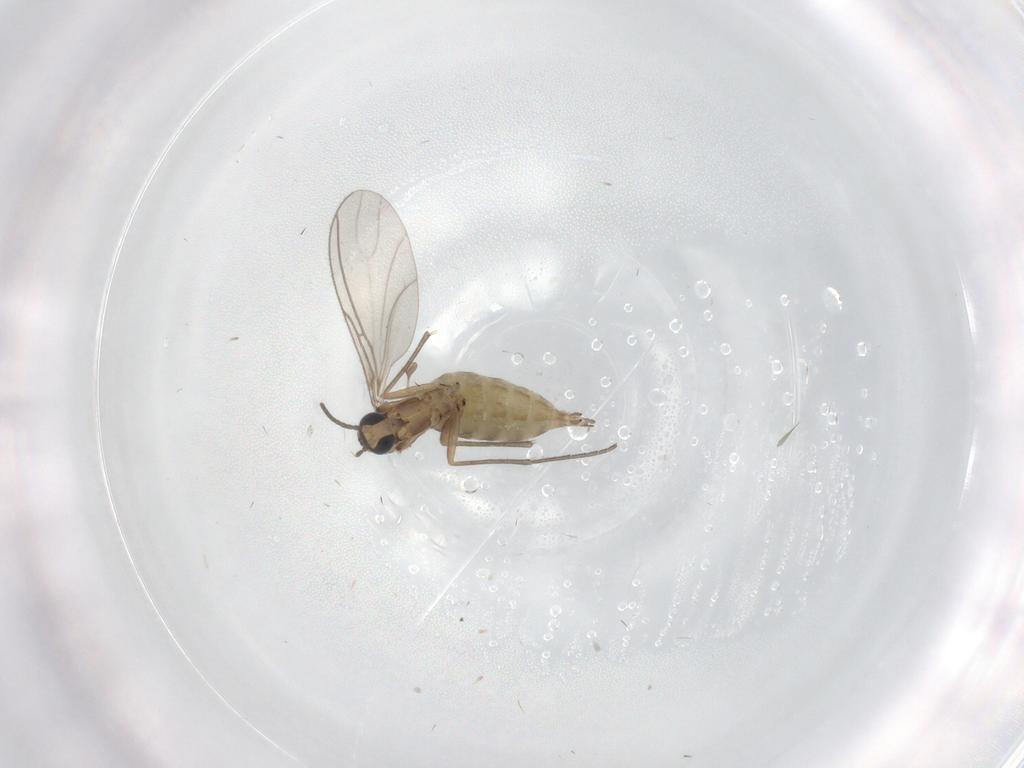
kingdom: Animalia
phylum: Arthropoda
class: Insecta
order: Diptera
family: Sciaridae
